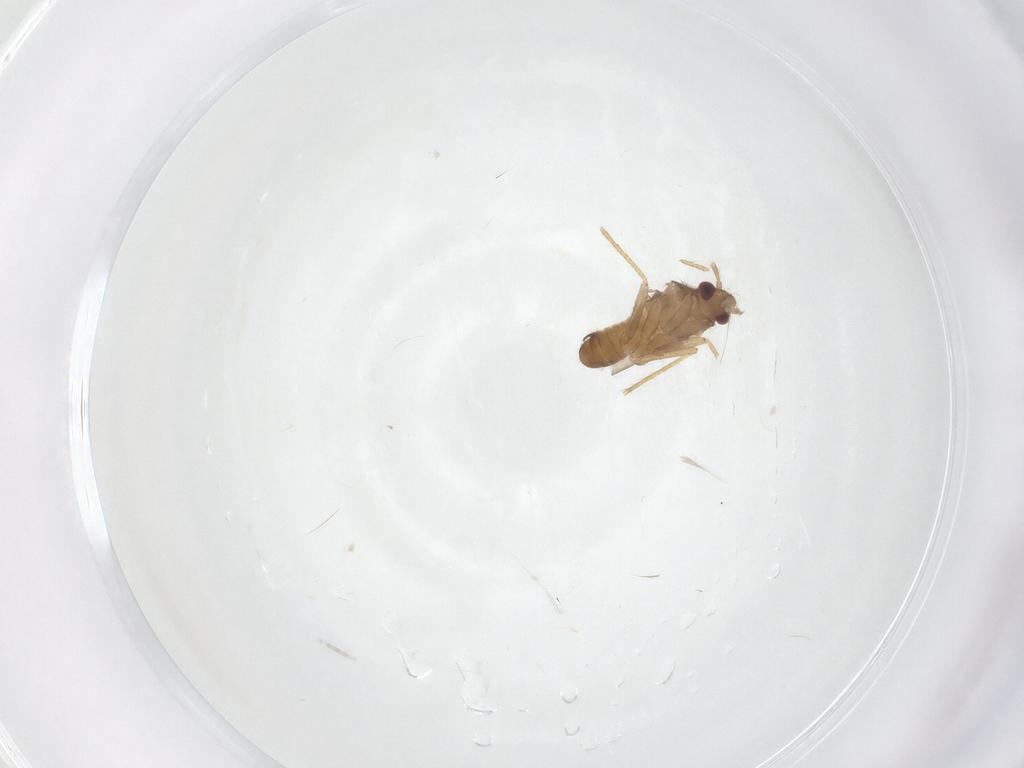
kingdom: Animalia
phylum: Arthropoda
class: Insecta
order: Hemiptera
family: Ceratocombidae
